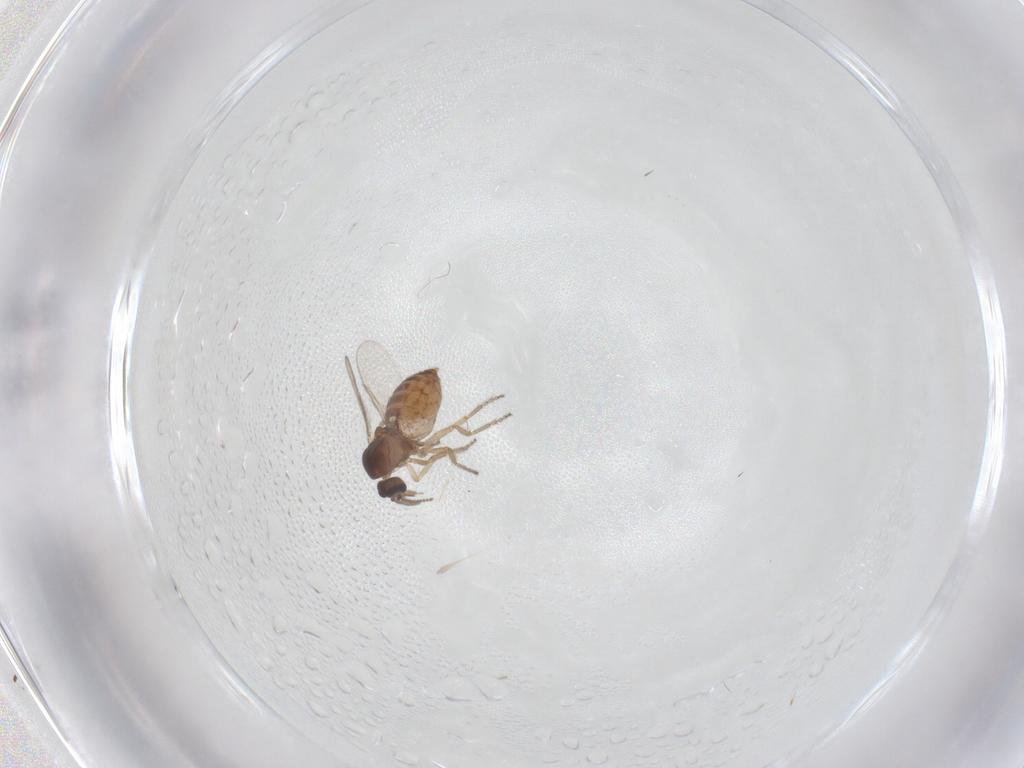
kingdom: Animalia
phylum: Arthropoda
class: Insecta
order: Diptera
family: Ceratopogonidae
